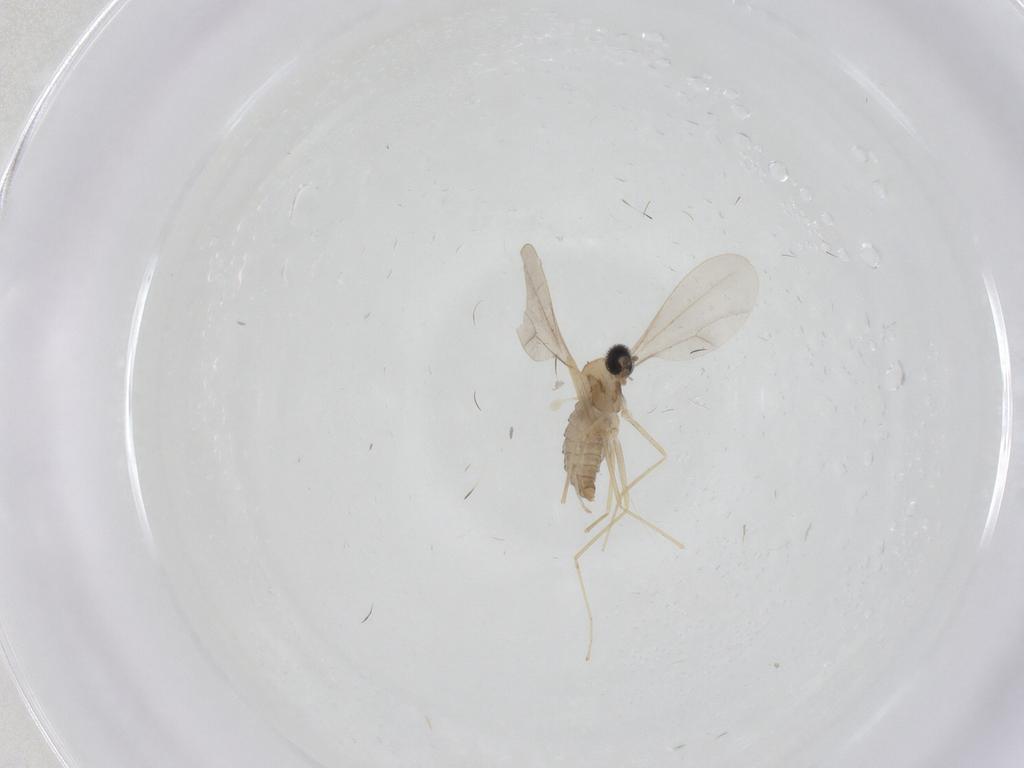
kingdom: Animalia
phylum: Arthropoda
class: Insecta
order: Diptera
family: Cecidomyiidae
